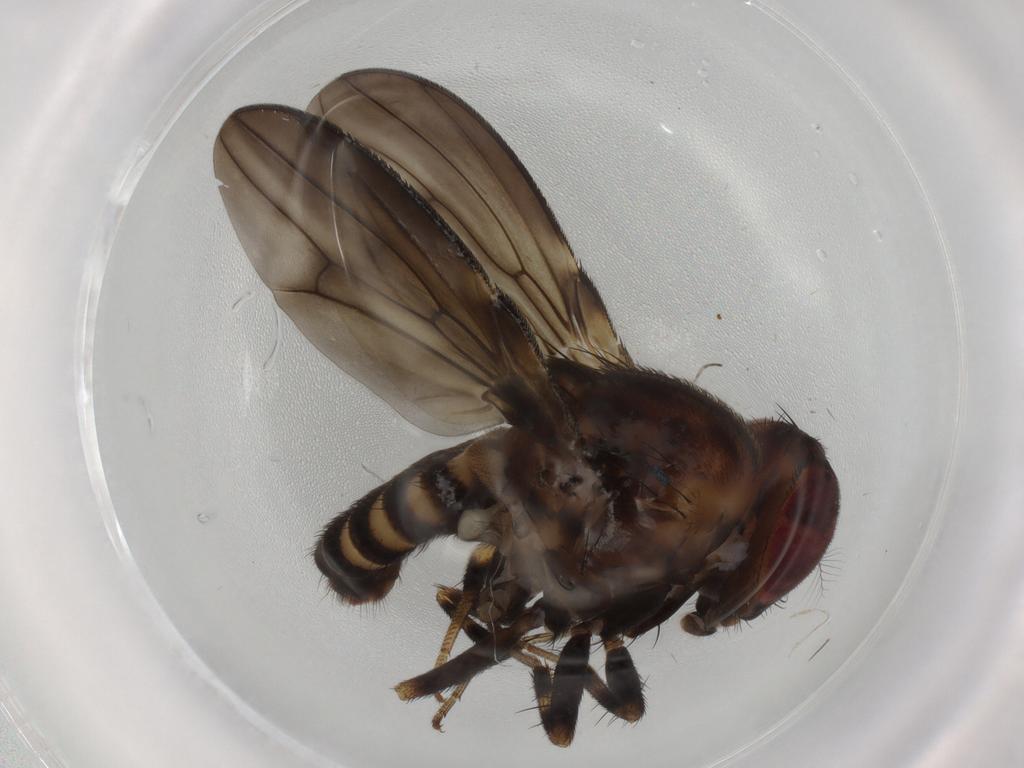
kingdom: Animalia
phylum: Arthropoda
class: Insecta
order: Diptera
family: Drosophilidae
